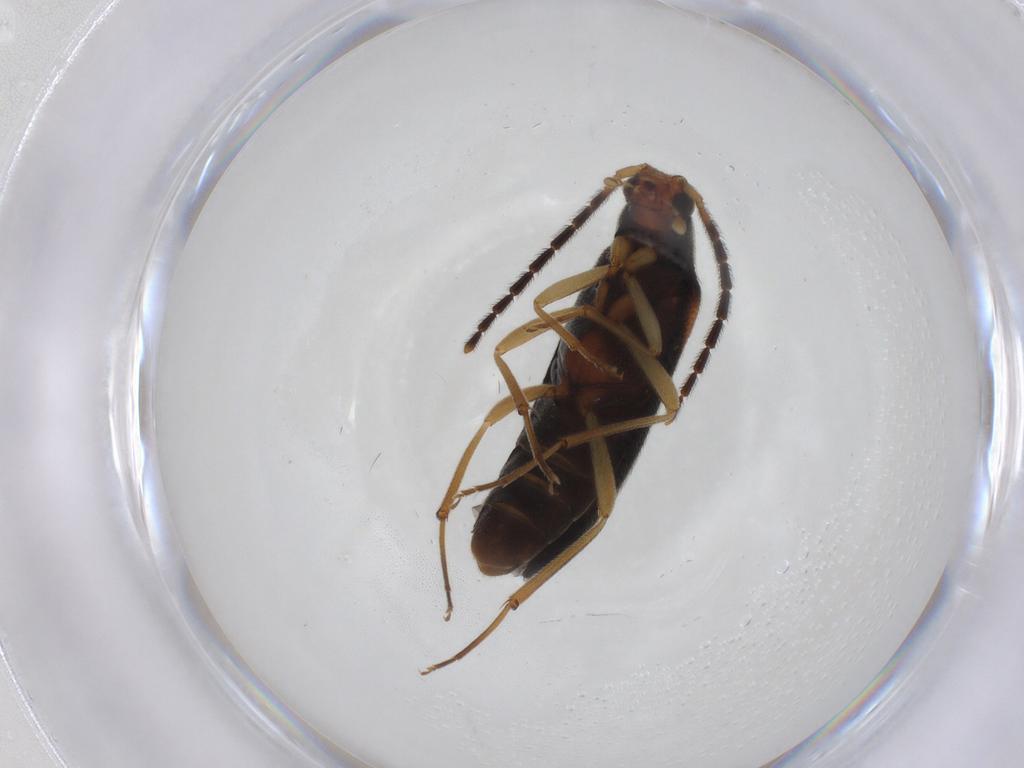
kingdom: Animalia
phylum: Arthropoda
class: Insecta
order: Coleoptera
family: Melandryidae
